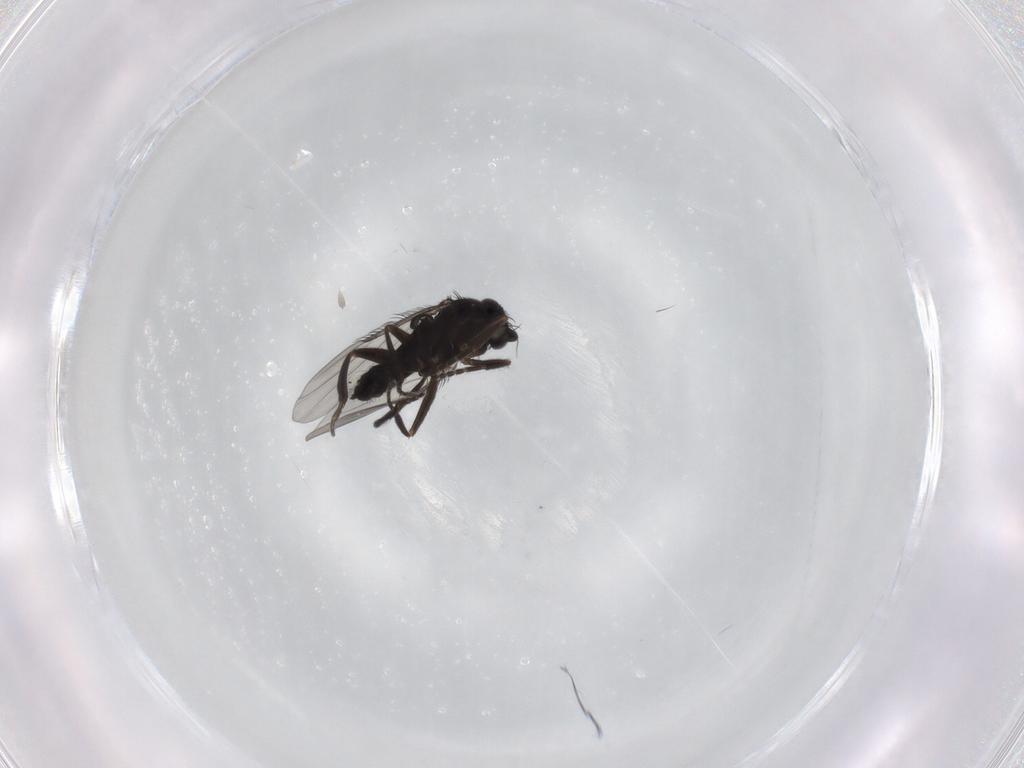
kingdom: Animalia
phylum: Arthropoda
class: Insecta
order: Diptera
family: Phoridae
